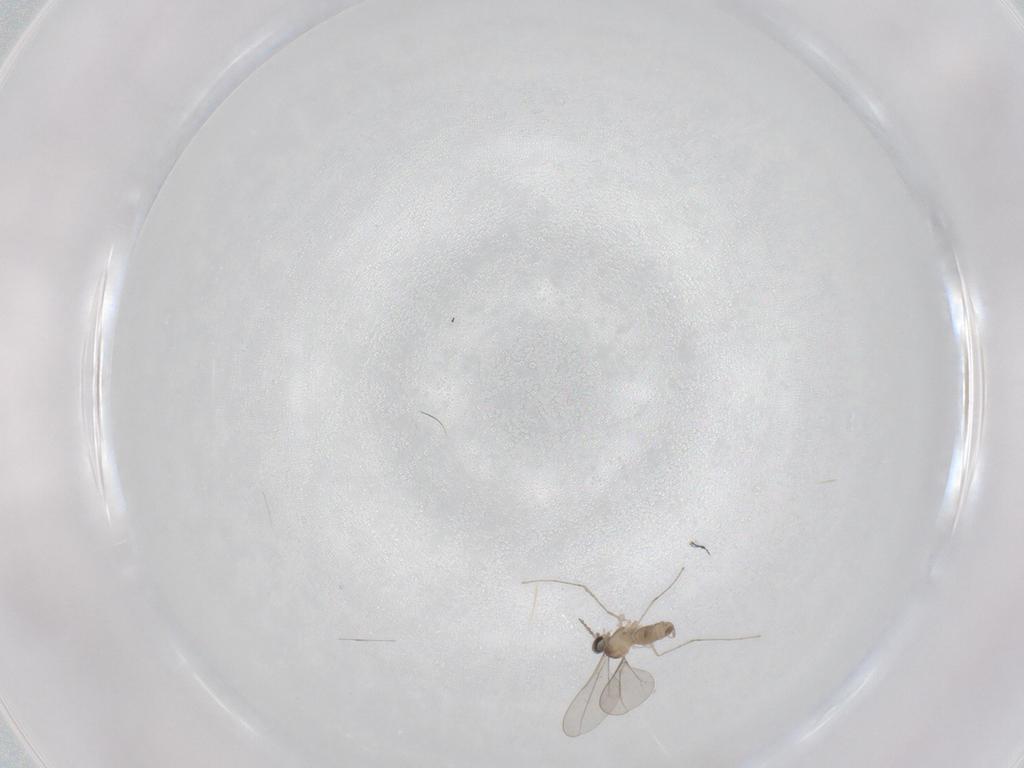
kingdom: Animalia
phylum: Arthropoda
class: Insecta
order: Diptera
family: Cecidomyiidae
